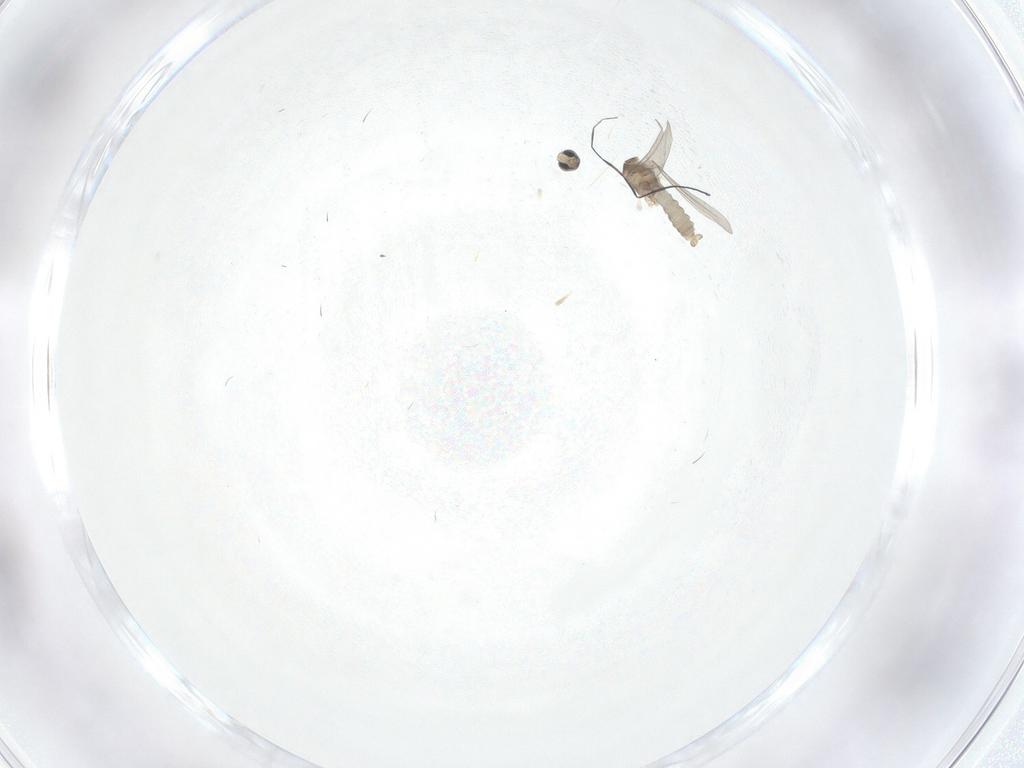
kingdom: Animalia
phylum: Arthropoda
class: Insecta
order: Diptera
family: Cecidomyiidae
